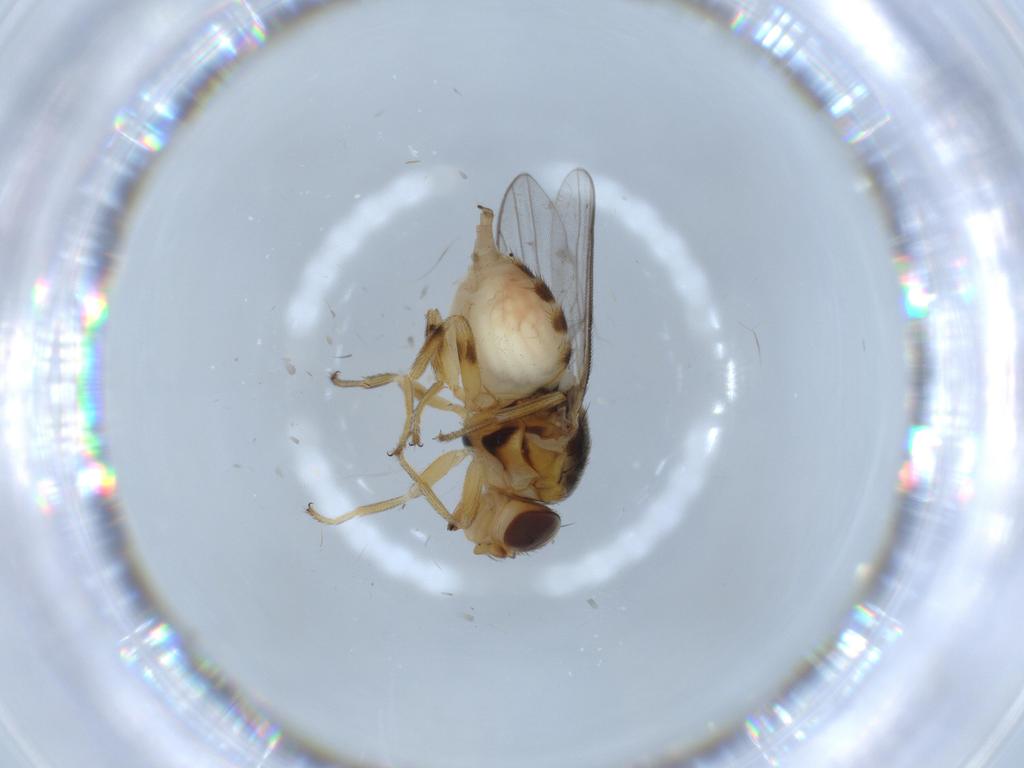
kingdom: Animalia
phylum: Arthropoda
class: Insecta
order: Diptera
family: Chloropidae
